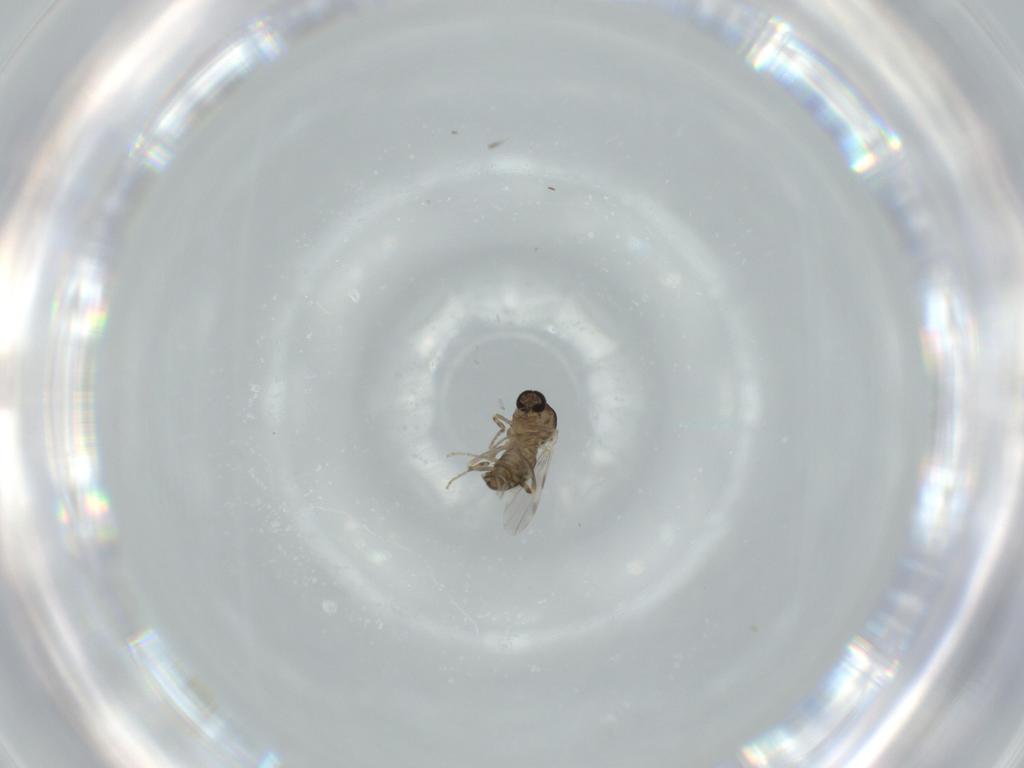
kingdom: Animalia
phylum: Arthropoda
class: Insecta
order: Diptera
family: Ceratopogonidae
